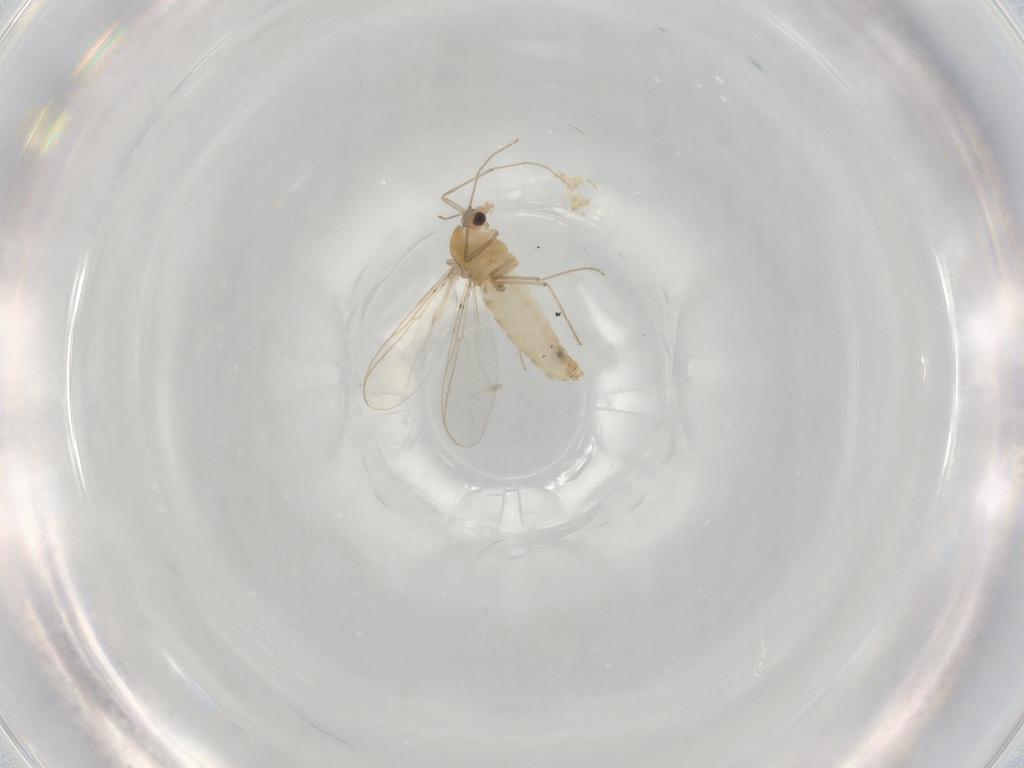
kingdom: Animalia
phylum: Arthropoda
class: Insecta
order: Diptera
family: Chironomidae
